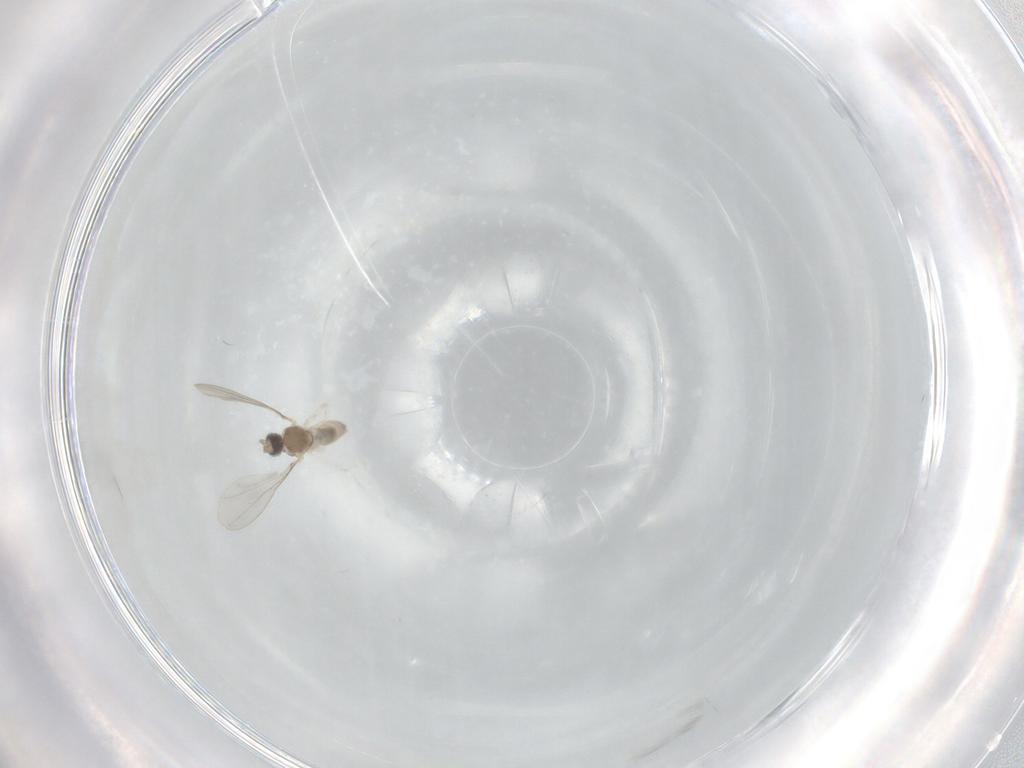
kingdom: Animalia
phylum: Arthropoda
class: Insecta
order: Diptera
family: Cecidomyiidae
